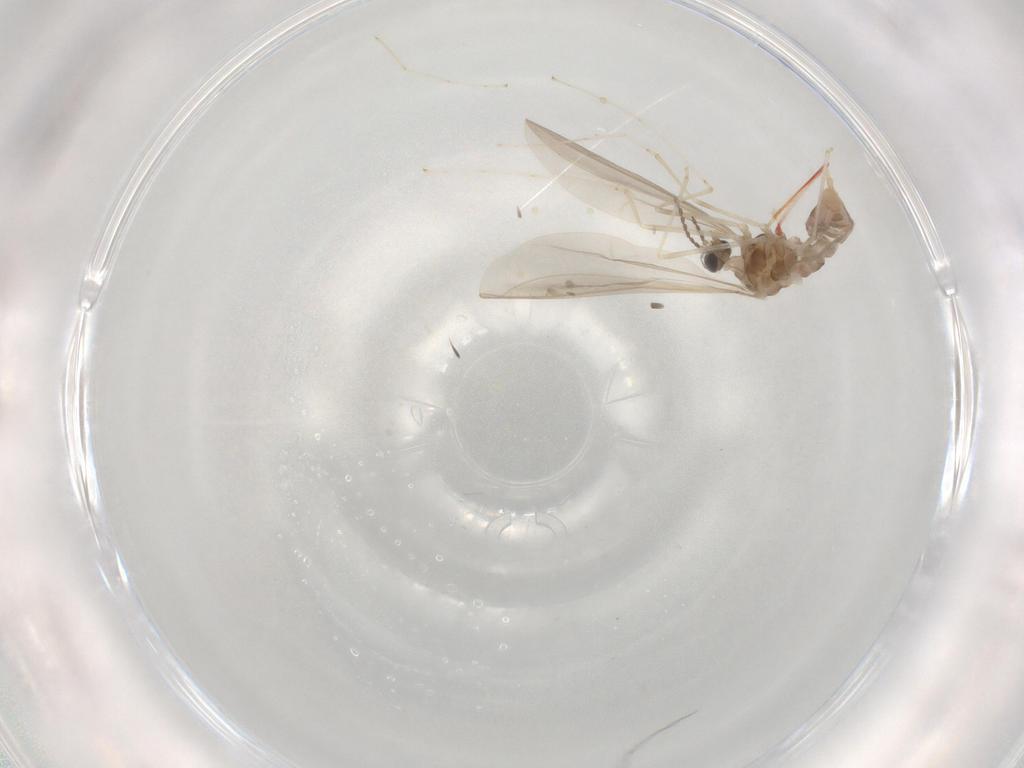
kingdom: Animalia
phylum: Arthropoda
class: Insecta
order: Diptera
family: Cecidomyiidae
